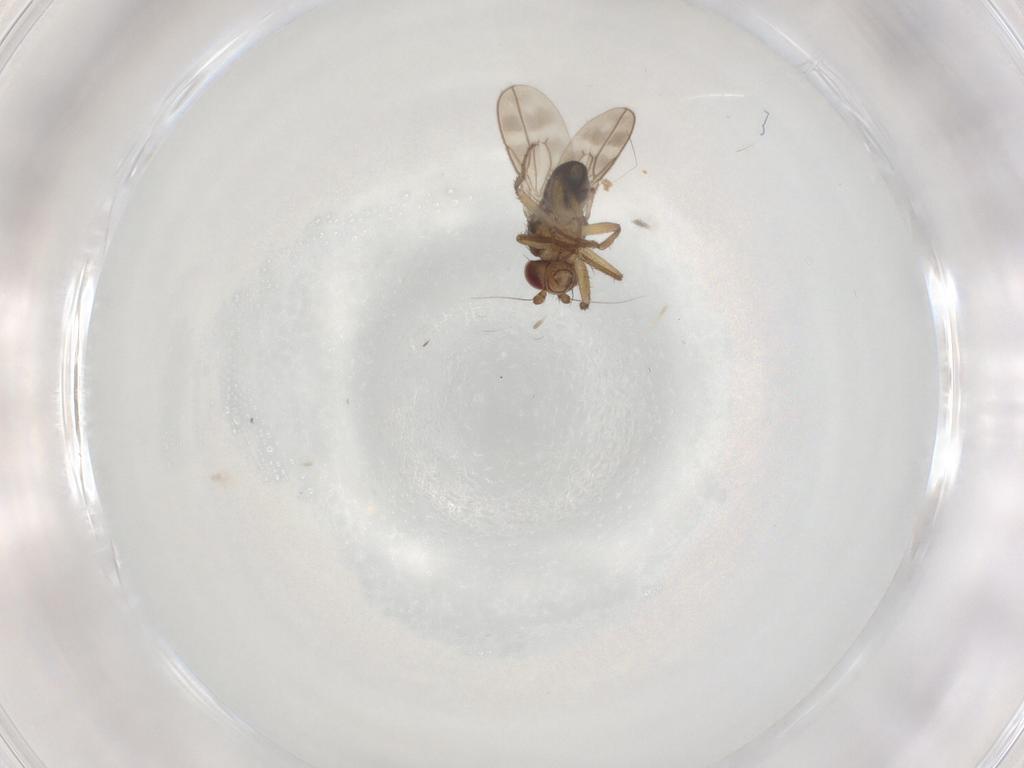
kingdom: Animalia
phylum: Arthropoda
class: Insecta
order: Diptera
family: Sphaeroceridae
